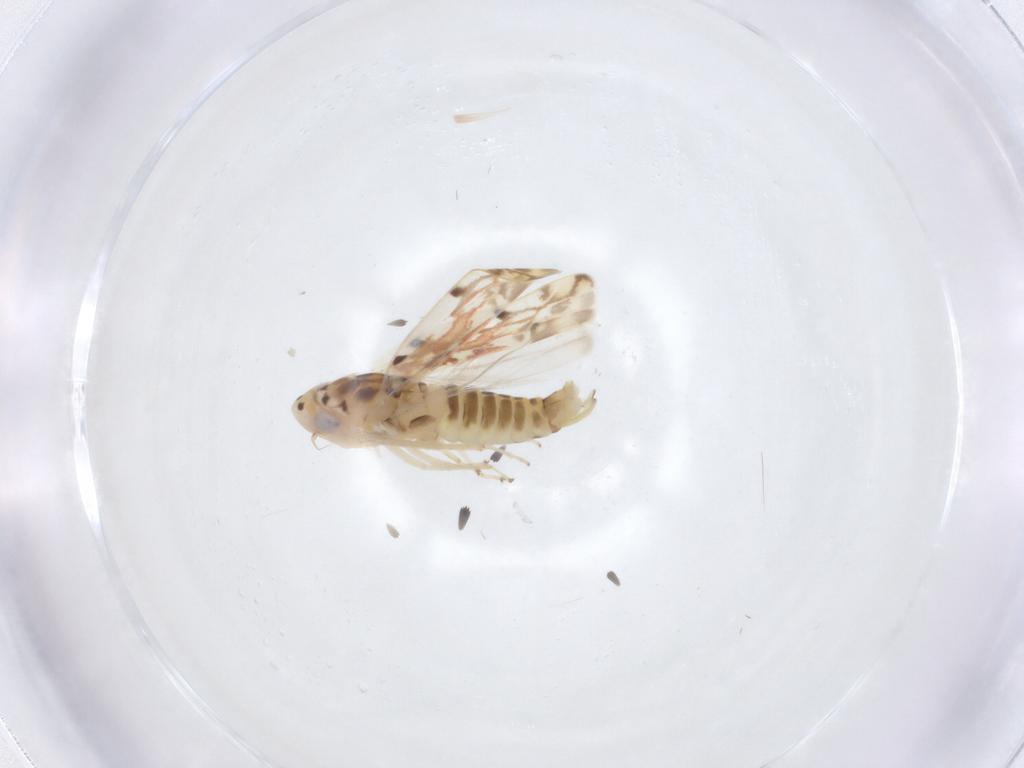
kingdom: Animalia
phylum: Arthropoda
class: Insecta
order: Hemiptera
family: Cicadellidae
